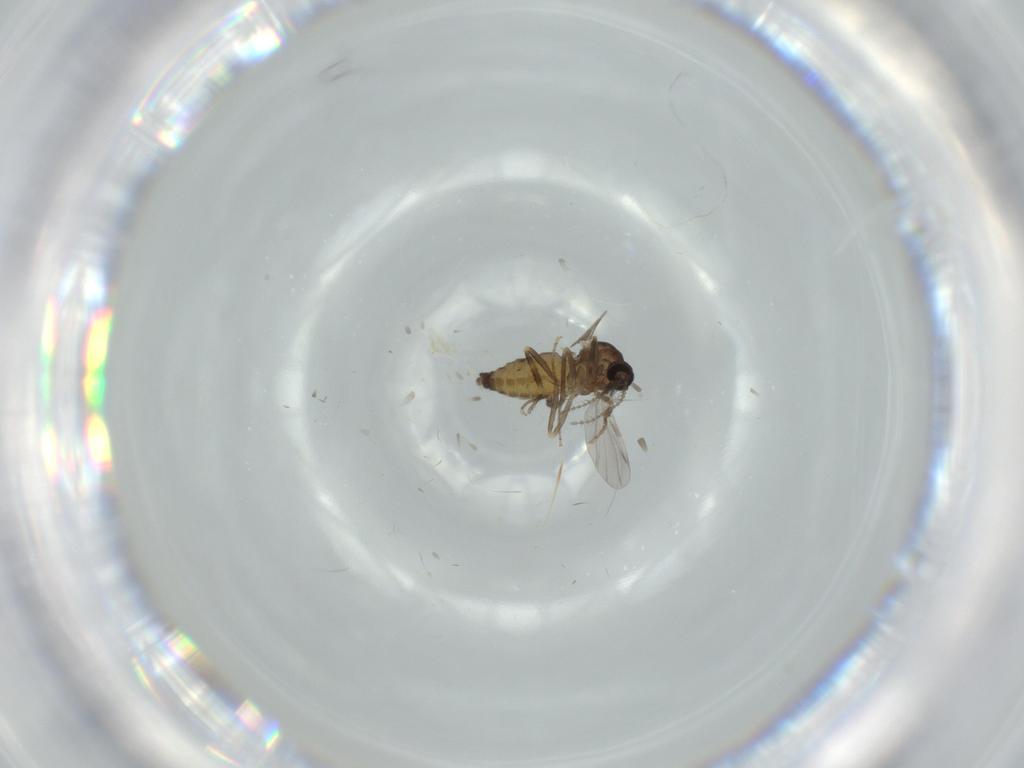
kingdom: Animalia
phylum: Arthropoda
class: Insecta
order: Diptera
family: Ceratopogonidae
